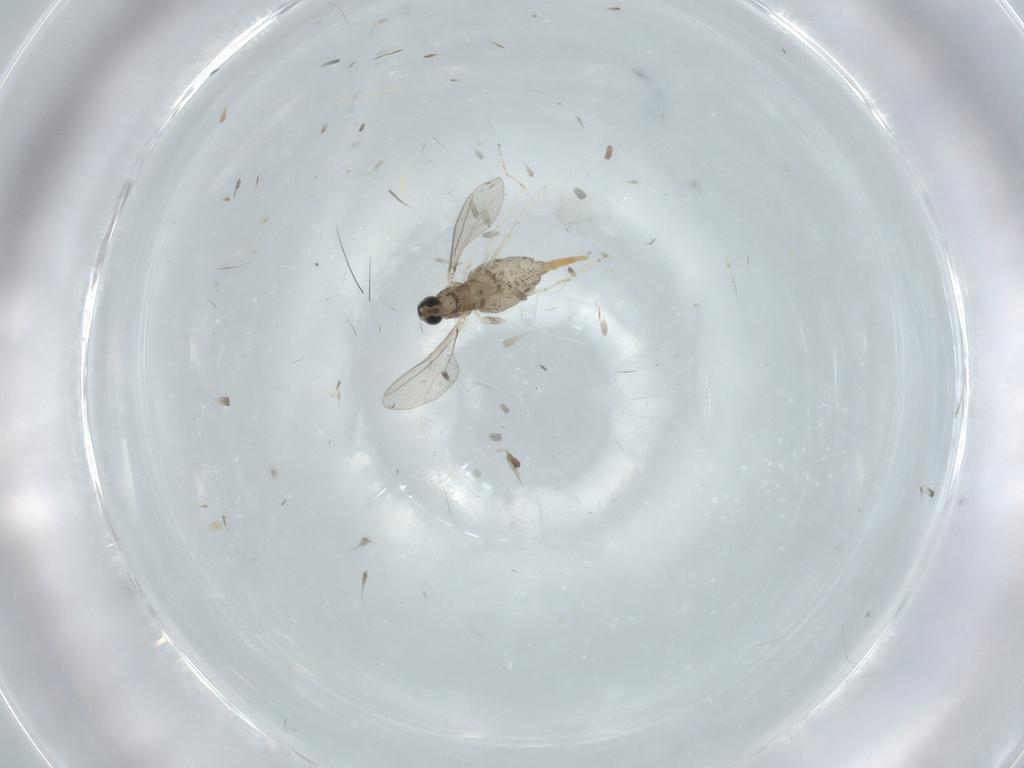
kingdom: Animalia
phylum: Arthropoda
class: Insecta
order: Diptera
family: Cecidomyiidae
